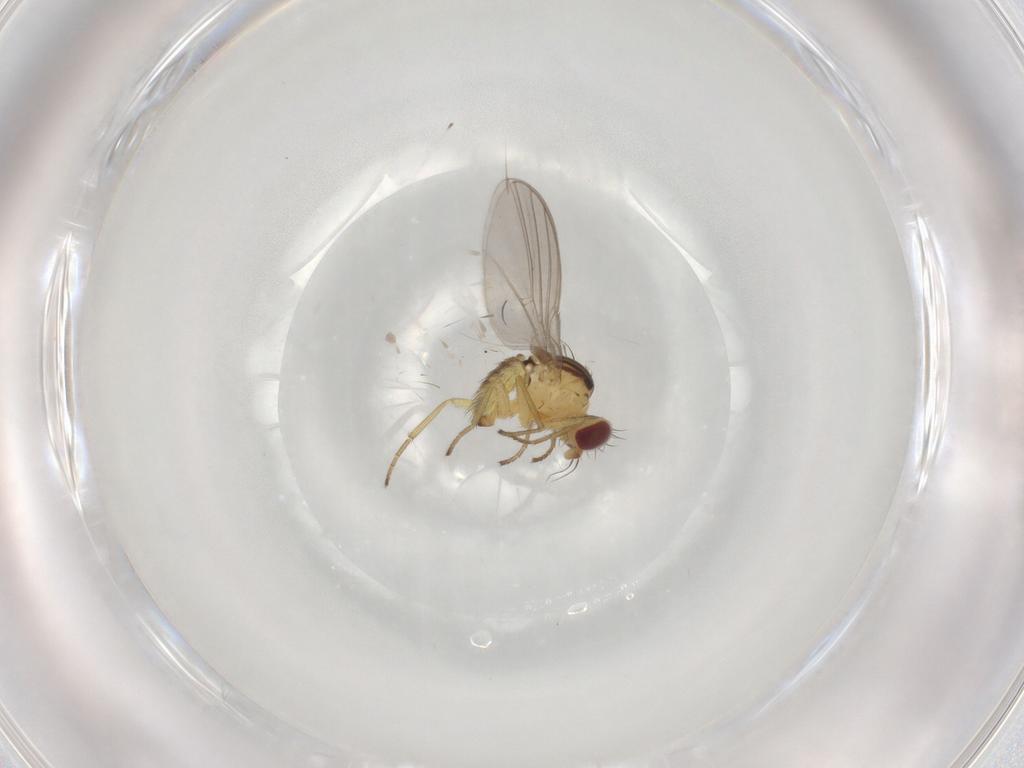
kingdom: Animalia
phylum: Arthropoda
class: Insecta
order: Diptera
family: Agromyzidae
